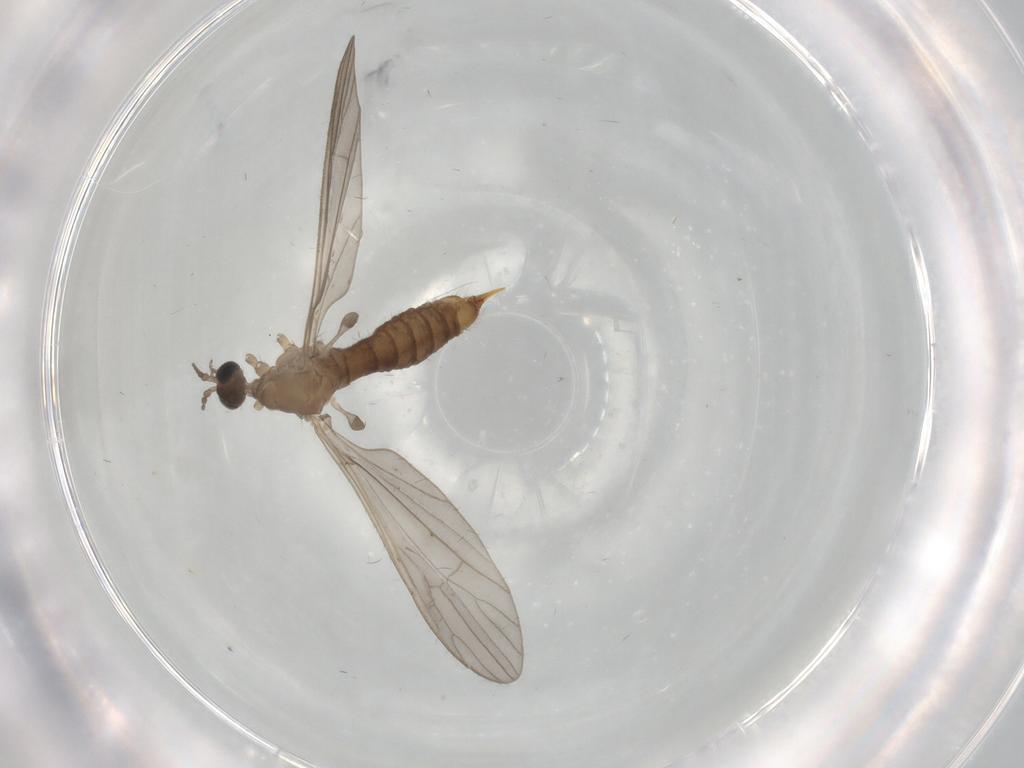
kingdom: Animalia
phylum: Arthropoda
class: Insecta
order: Diptera
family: Limoniidae
